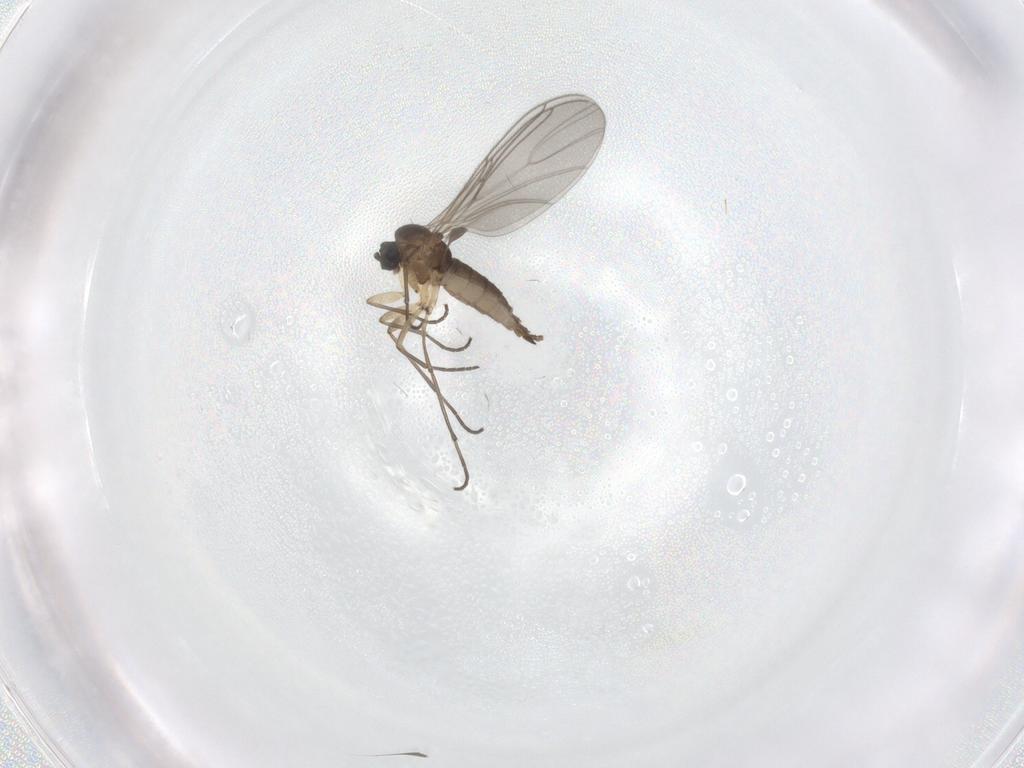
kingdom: Animalia
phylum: Arthropoda
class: Insecta
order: Diptera
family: Sciaridae
